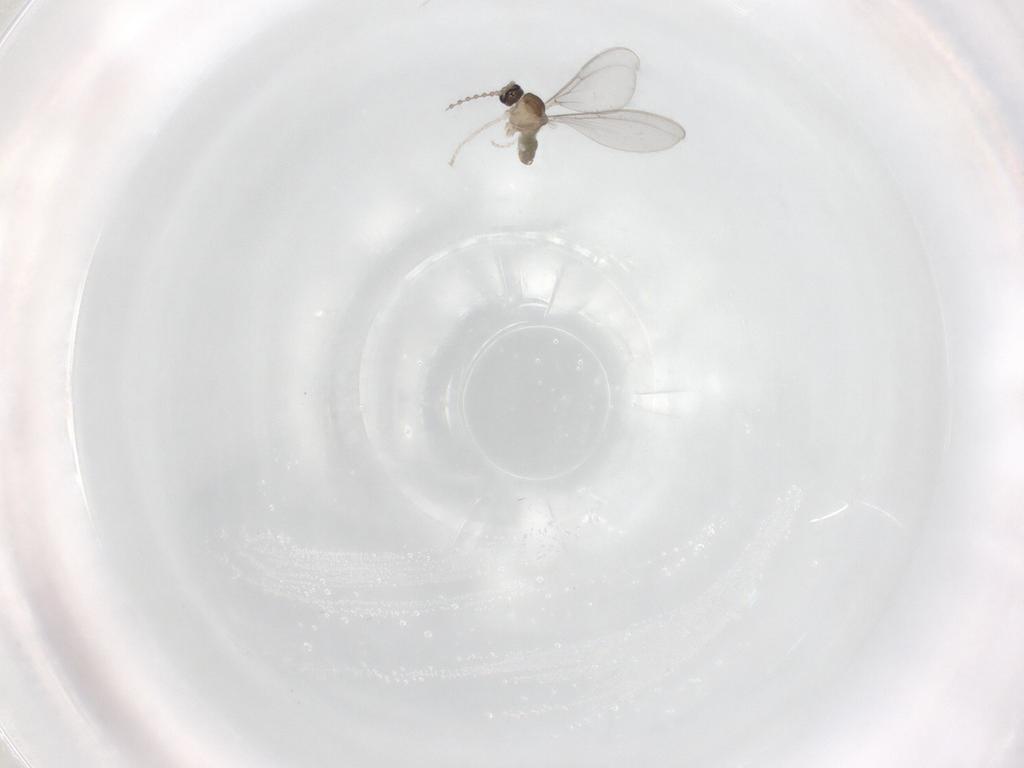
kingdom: Animalia
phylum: Arthropoda
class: Insecta
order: Diptera
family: Cecidomyiidae
